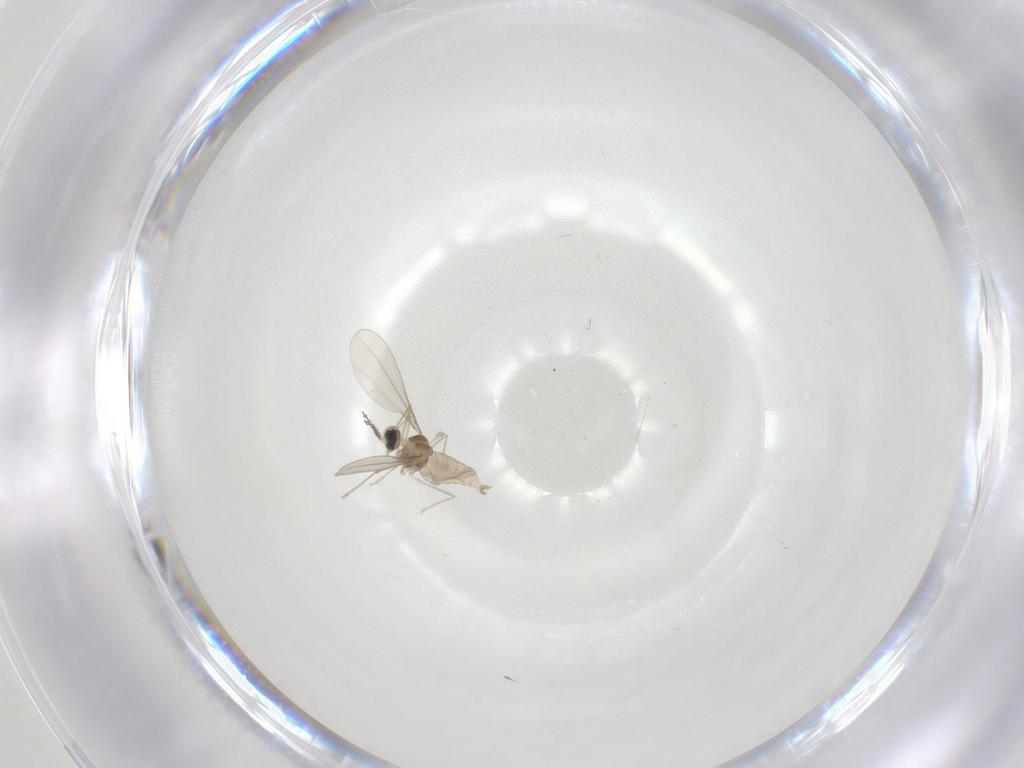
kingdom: Animalia
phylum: Arthropoda
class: Insecta
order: Diptera
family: Cecidomyiidae
